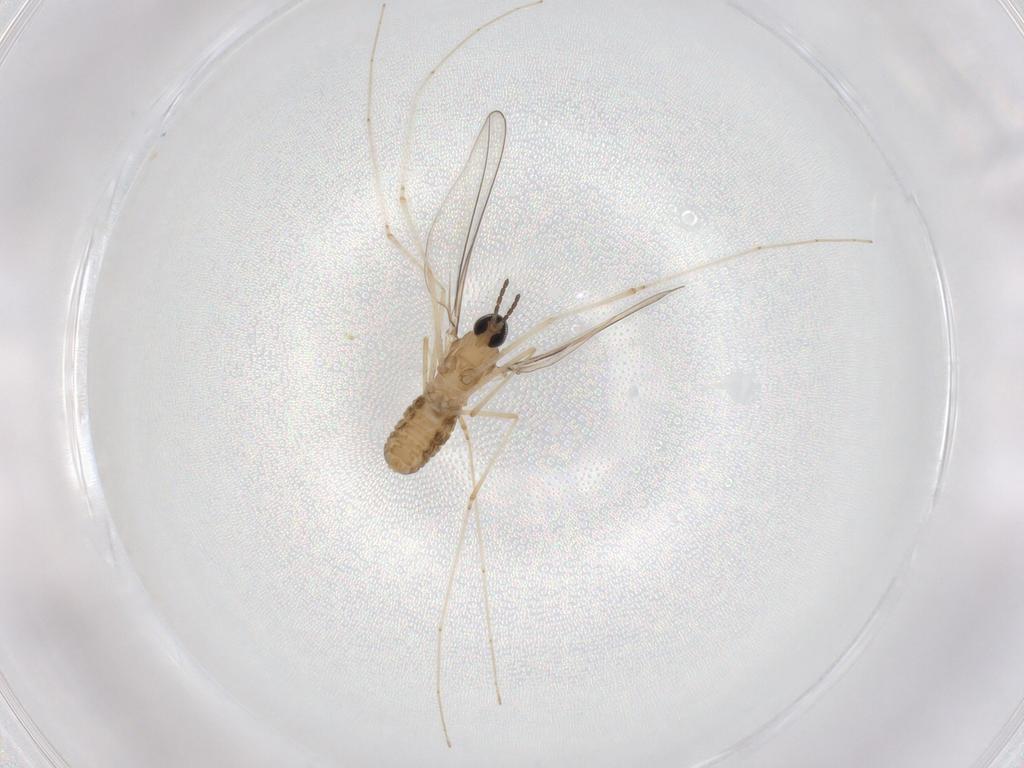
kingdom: Animalia
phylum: Arthropoda
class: Insecta
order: Diptera
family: Cecidomyiidae
